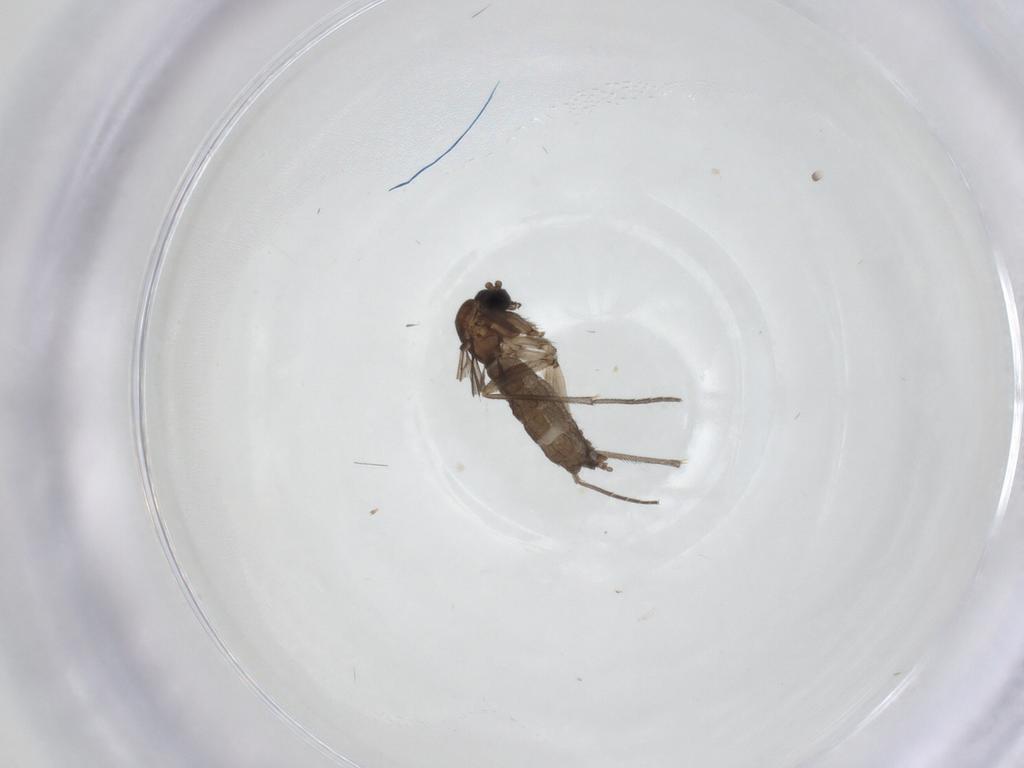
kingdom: Animalia
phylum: Arthropoda
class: Insecta
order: Diptera
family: Sciaridae
